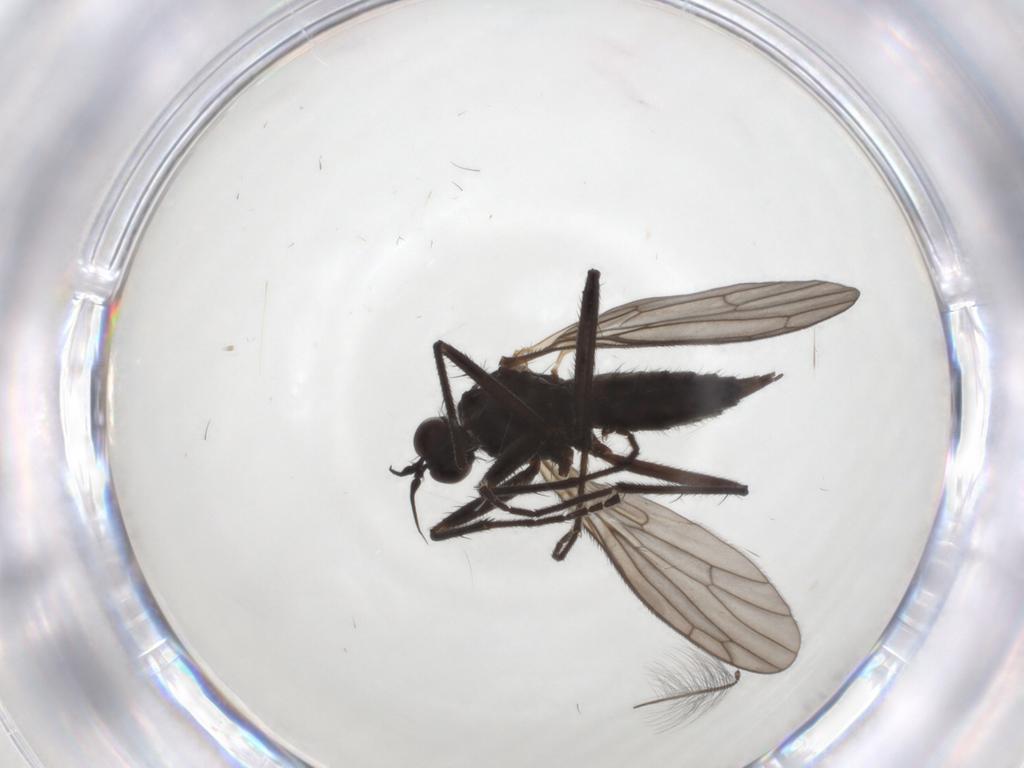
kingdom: Animalia
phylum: Arthropoda
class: Insecta
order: Diptera
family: Empididae
